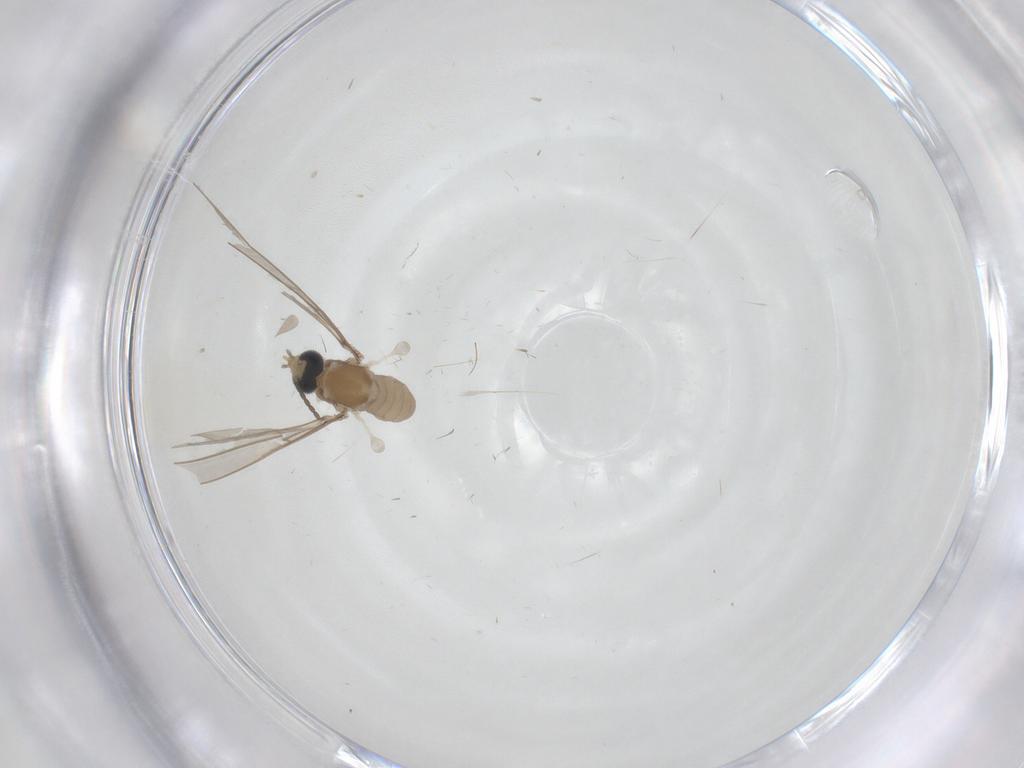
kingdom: Animalia
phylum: Arthropoda
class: Insecta
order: Diptera
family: Cecidomyiidae
